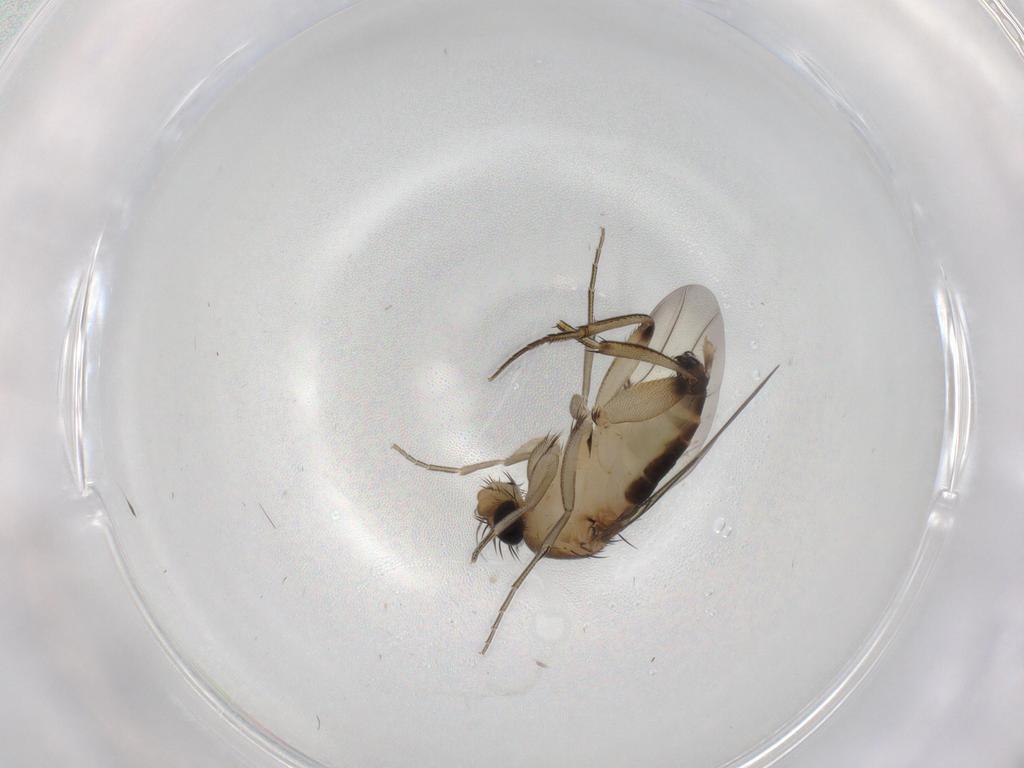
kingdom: Animalia
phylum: Arthropoda
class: Insecta
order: Diptera
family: Phoridae
